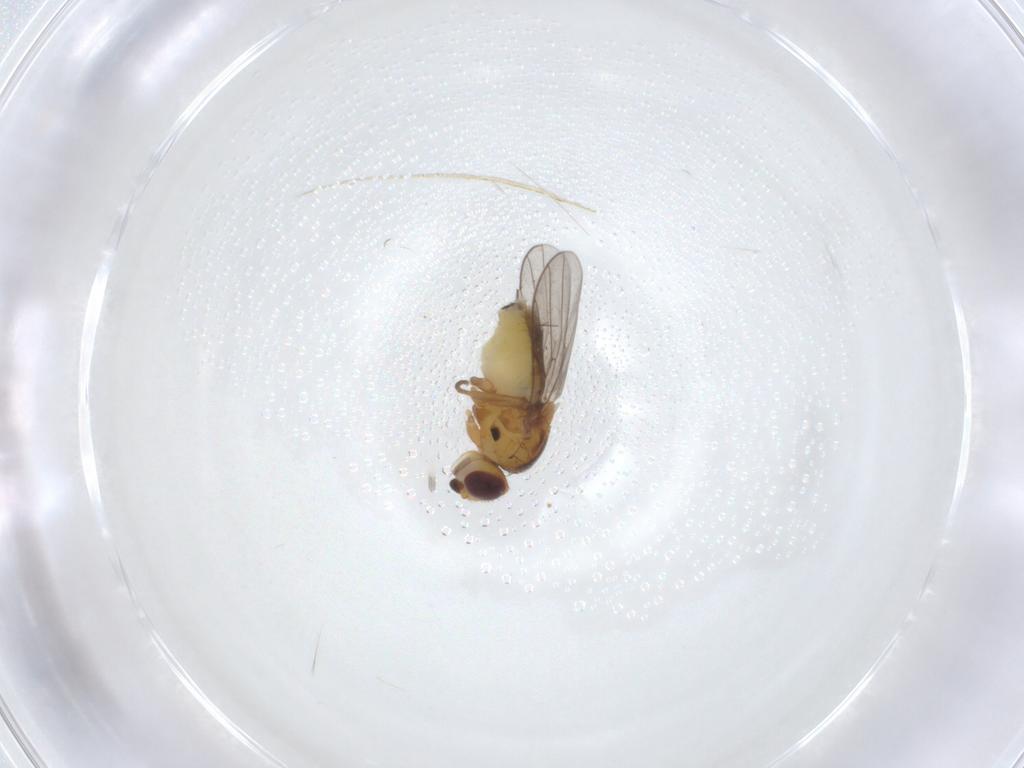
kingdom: Animalia
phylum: Arthropoda
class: Insecta
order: Diptera
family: Chloropidae
